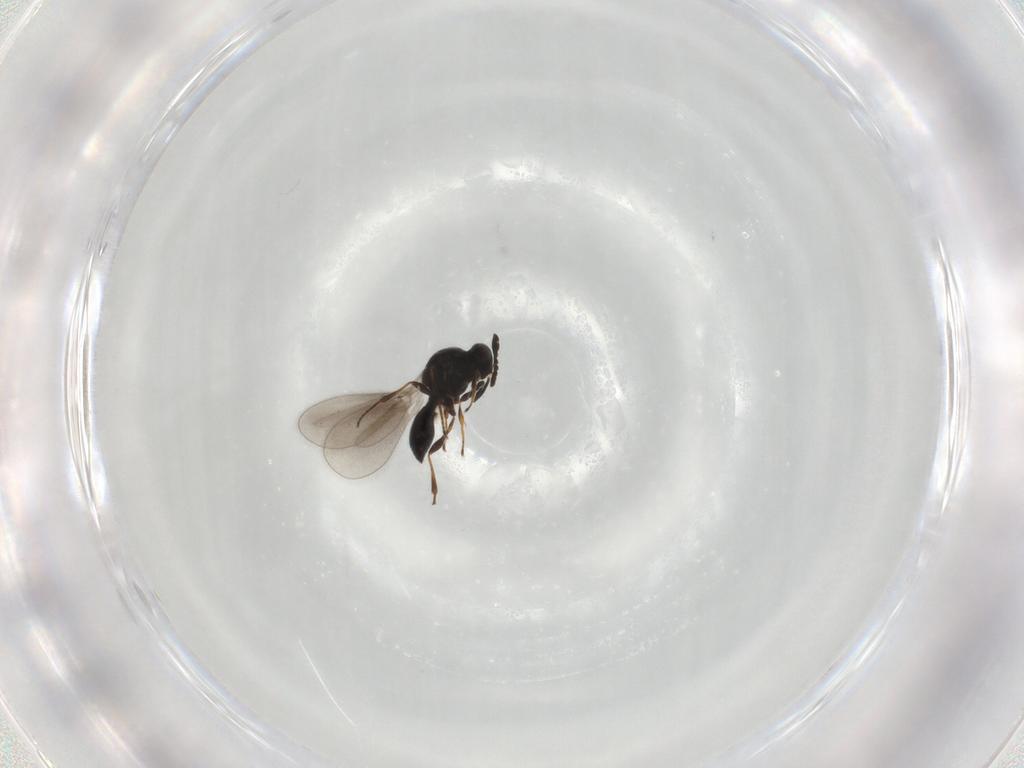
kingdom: Animalia
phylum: Arthropoda
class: Insecta
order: Hymenoptera
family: Platygastridae
